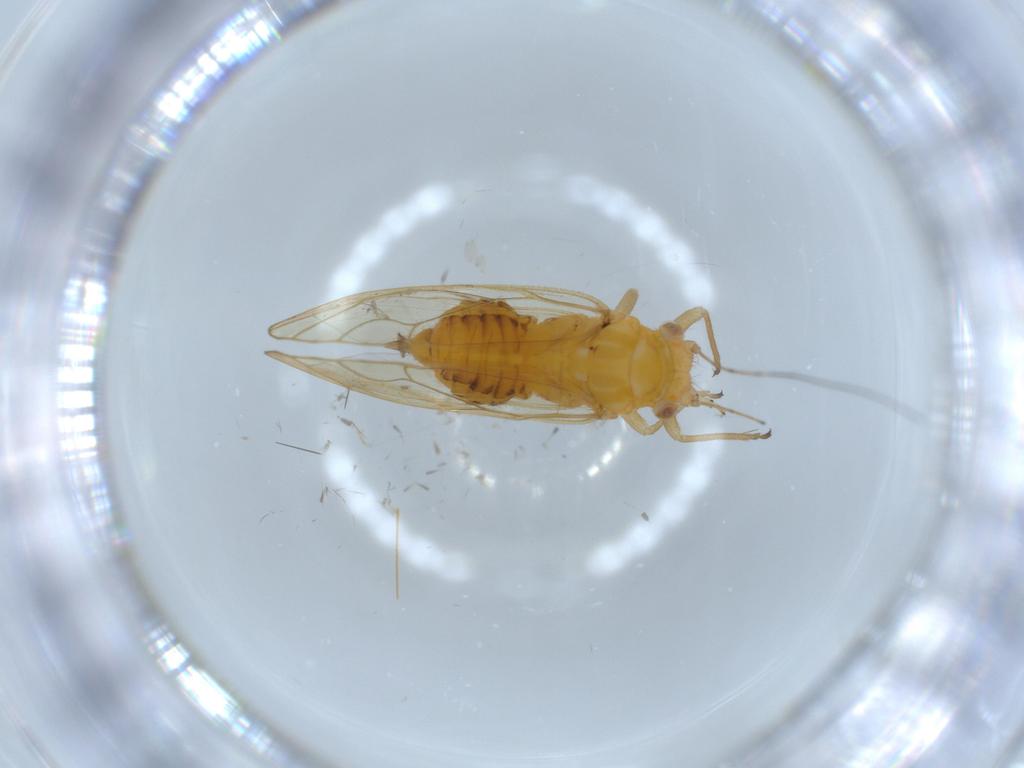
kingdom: Animalia
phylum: Arthropoda
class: Insecta
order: Hemiptera
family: Psyllidae
